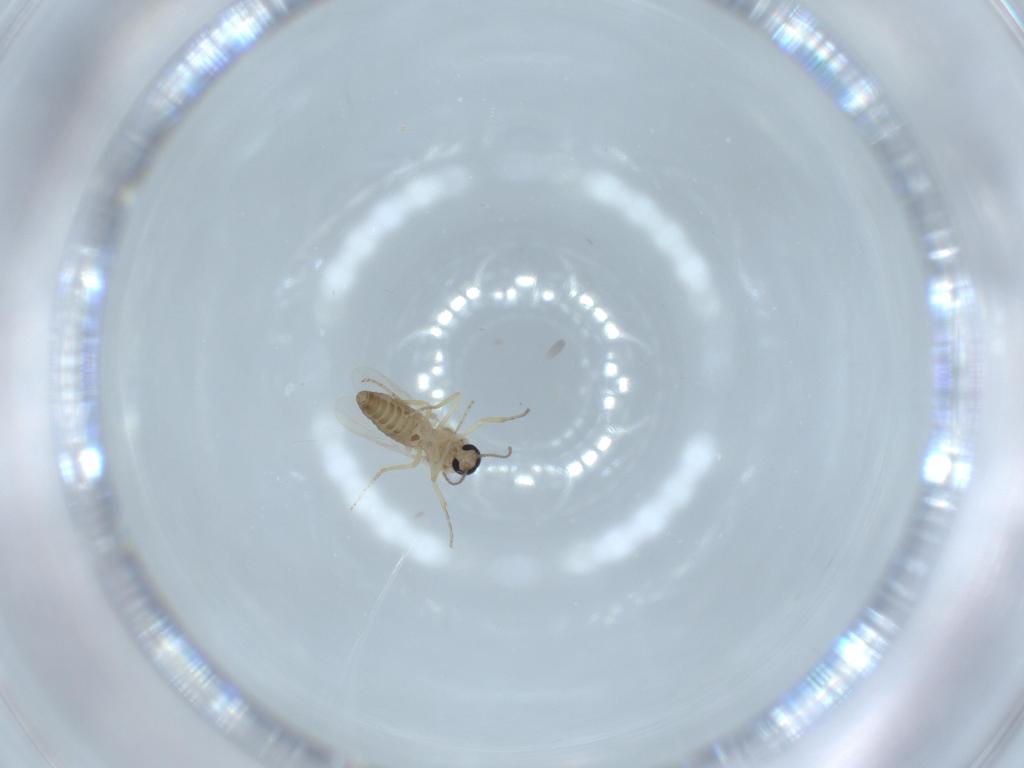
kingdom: Animalia
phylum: Arthropoda
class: Insecta
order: Diptera
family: Ceratopogonidae
